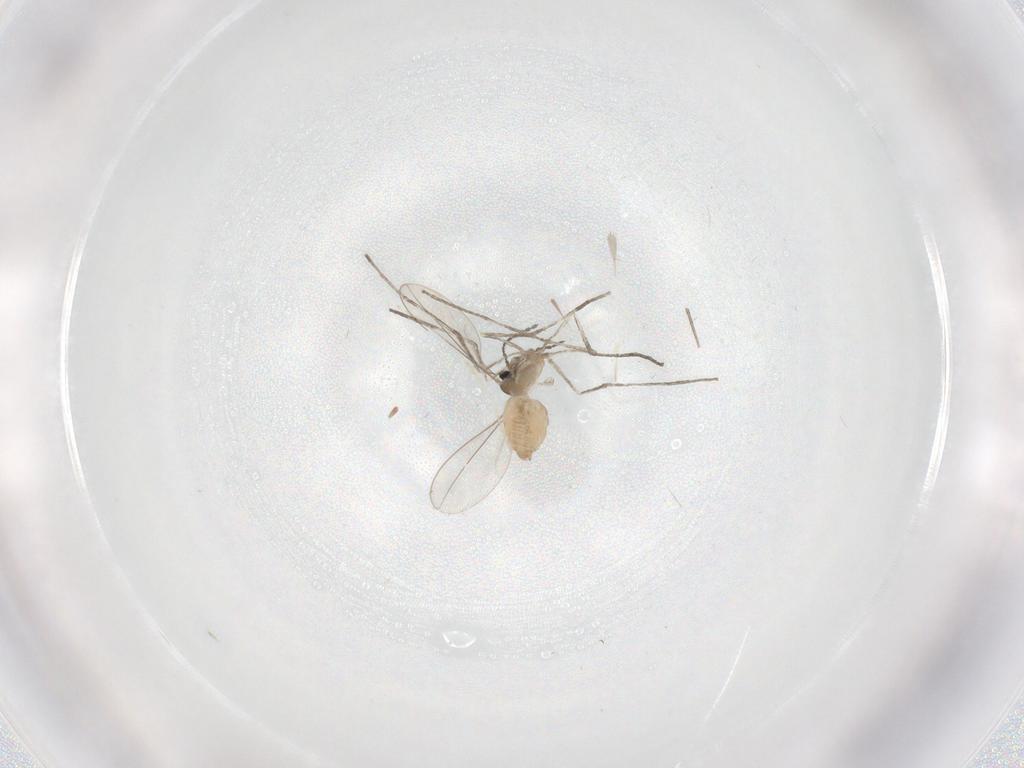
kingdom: Animalia
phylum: Arthropoda
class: Insecta
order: Diptera
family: Cecidomyiidae
